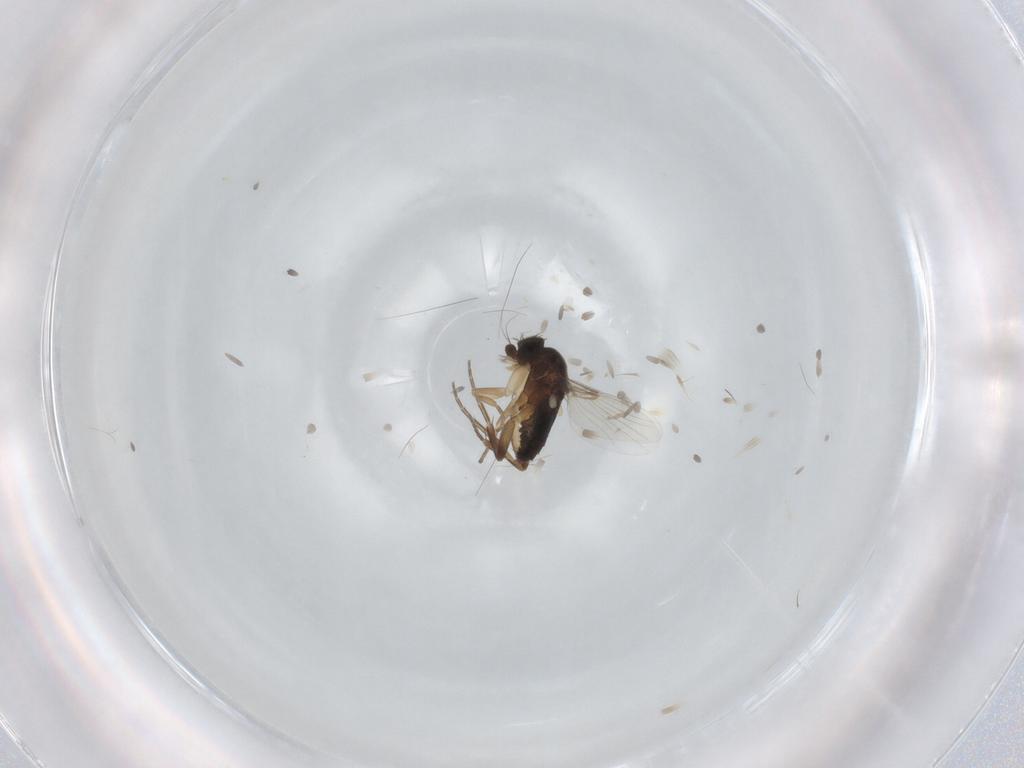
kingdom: Animalia
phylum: Arthropoda
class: Insecta
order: Diptera
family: Phoridae
